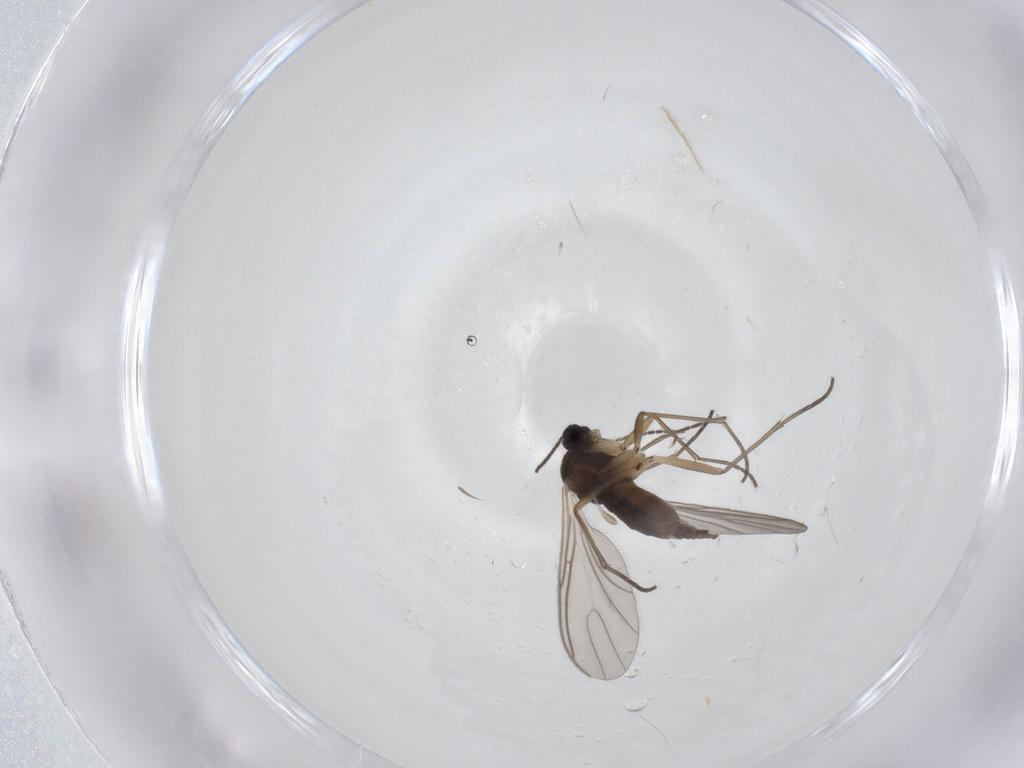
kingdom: Animalia
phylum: Arthropoda
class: Insecta
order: Diptera
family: Sciaridae
